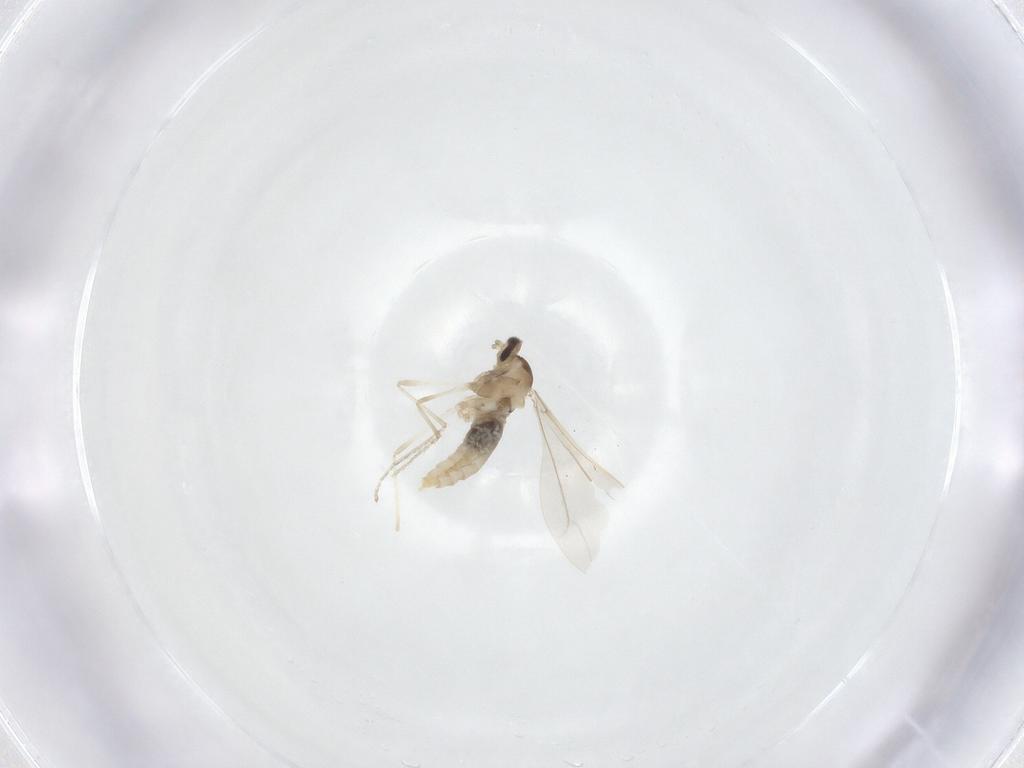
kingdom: Animalia
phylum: Arthropoda
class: Insecta
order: Diptera
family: Cecidomyiidae
